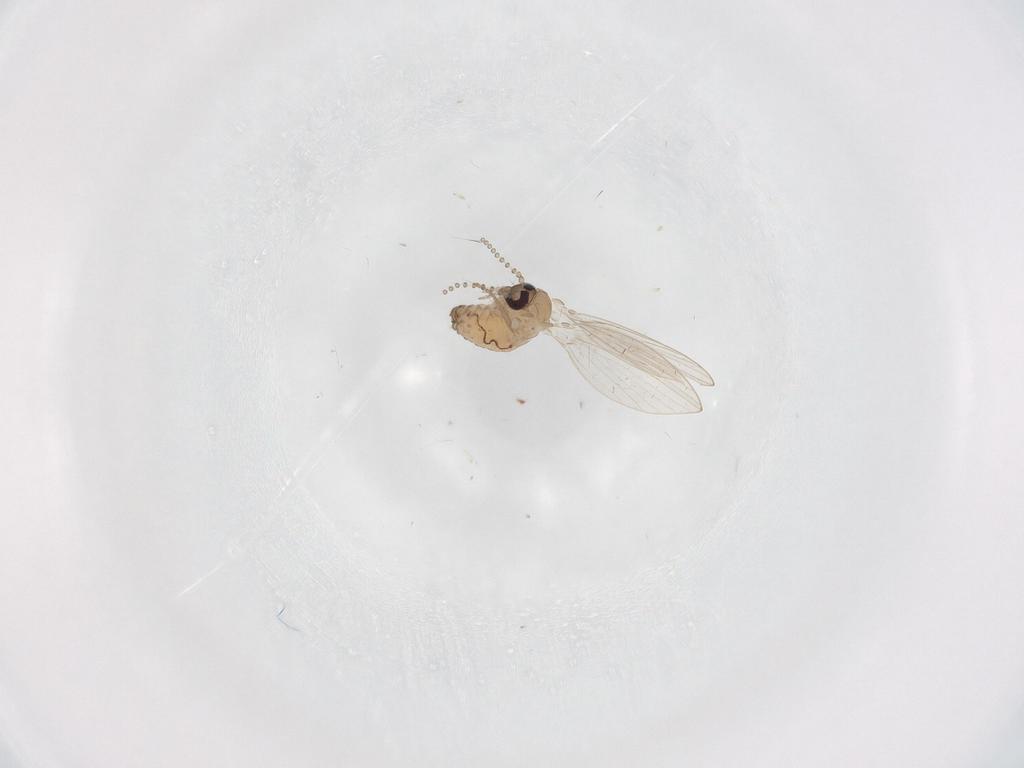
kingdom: Animalia
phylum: Arthropoda
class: Insecta
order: Diptera
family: Psychodidae
